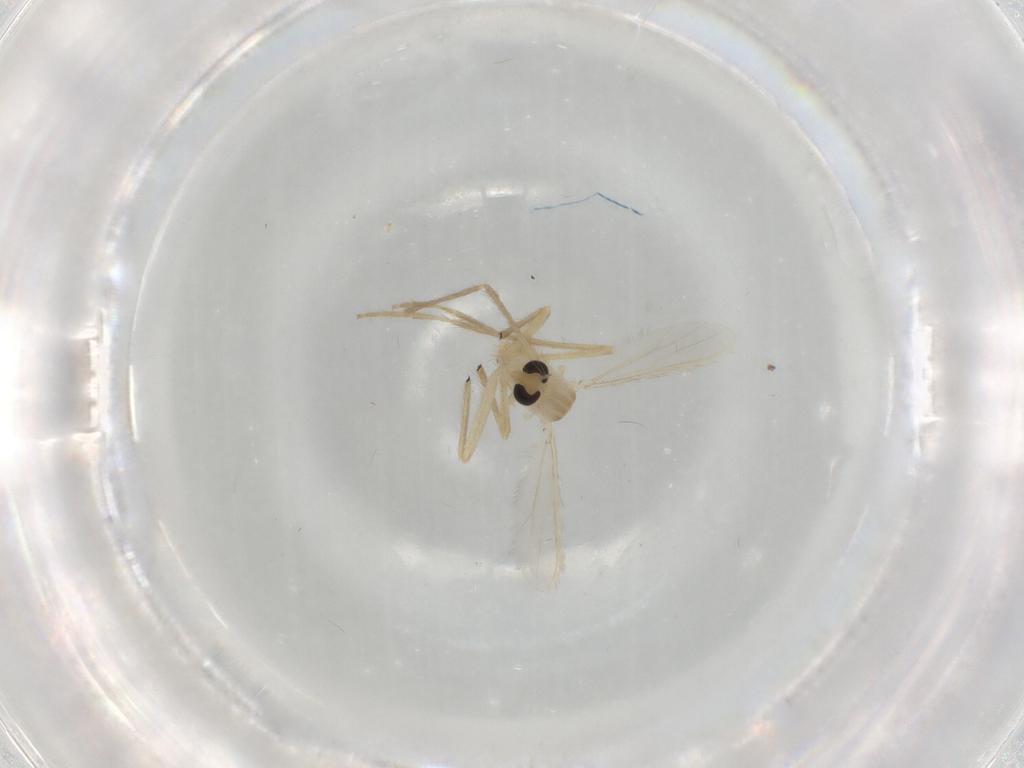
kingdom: Animalia
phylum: Arthropoda
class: Insecta
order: Diptera
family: Chironomidae
